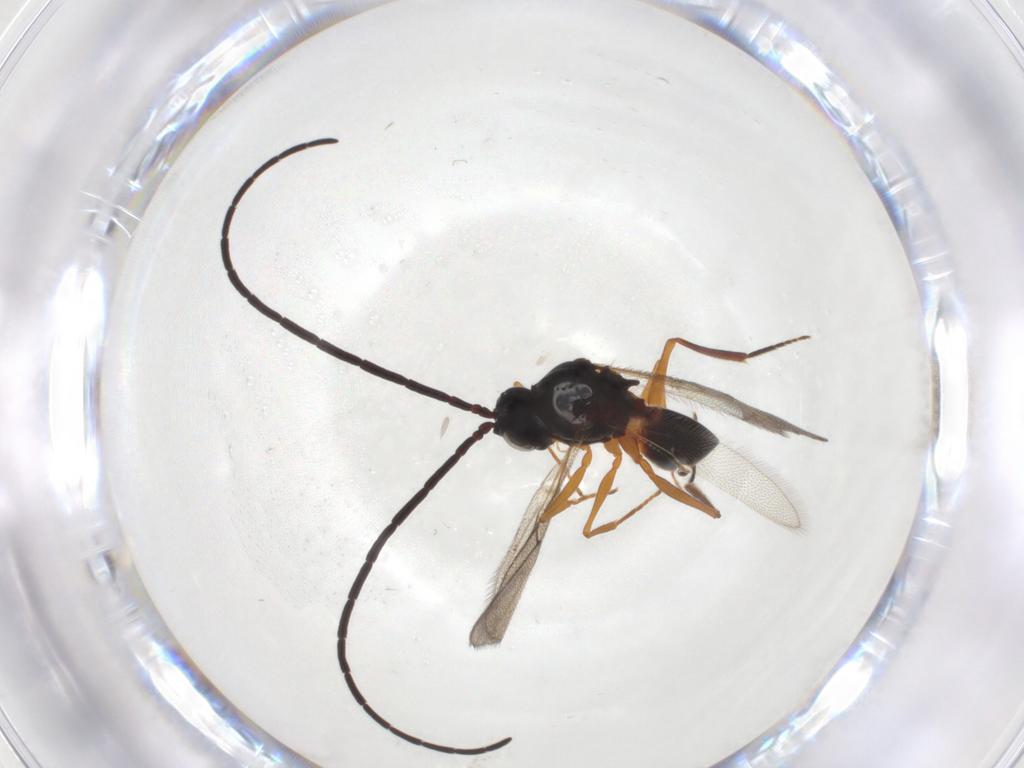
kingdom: Animalia
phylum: Arthropoda
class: Insecta
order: Hymenoptera
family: Figitidae
